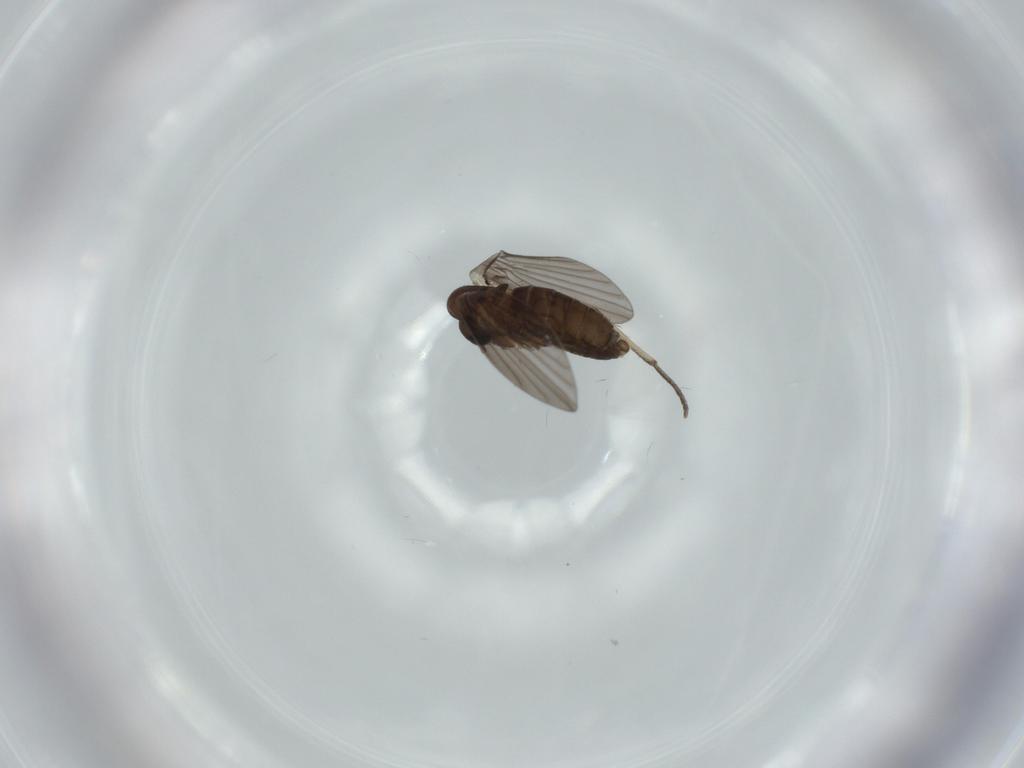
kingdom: Animalia
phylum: Arthropoda
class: Insecta
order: Diptera
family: Psychodidae
